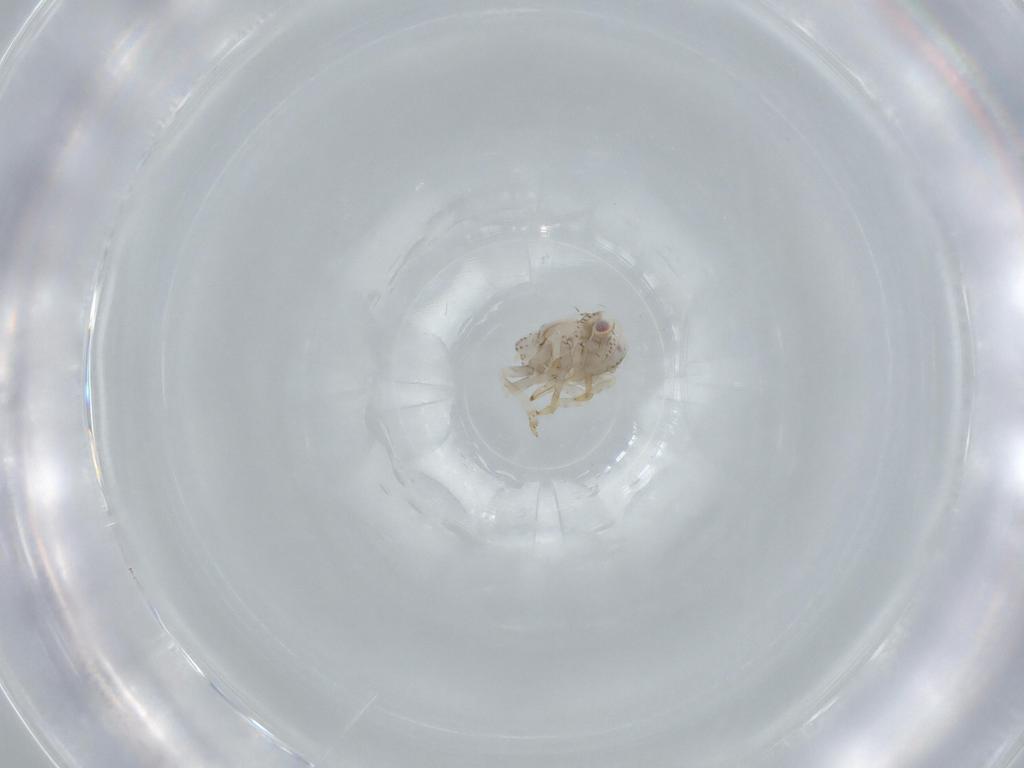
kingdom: Animalia
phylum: Arthropoda
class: Insecta
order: Hemiptera
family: Acanaloniidae
